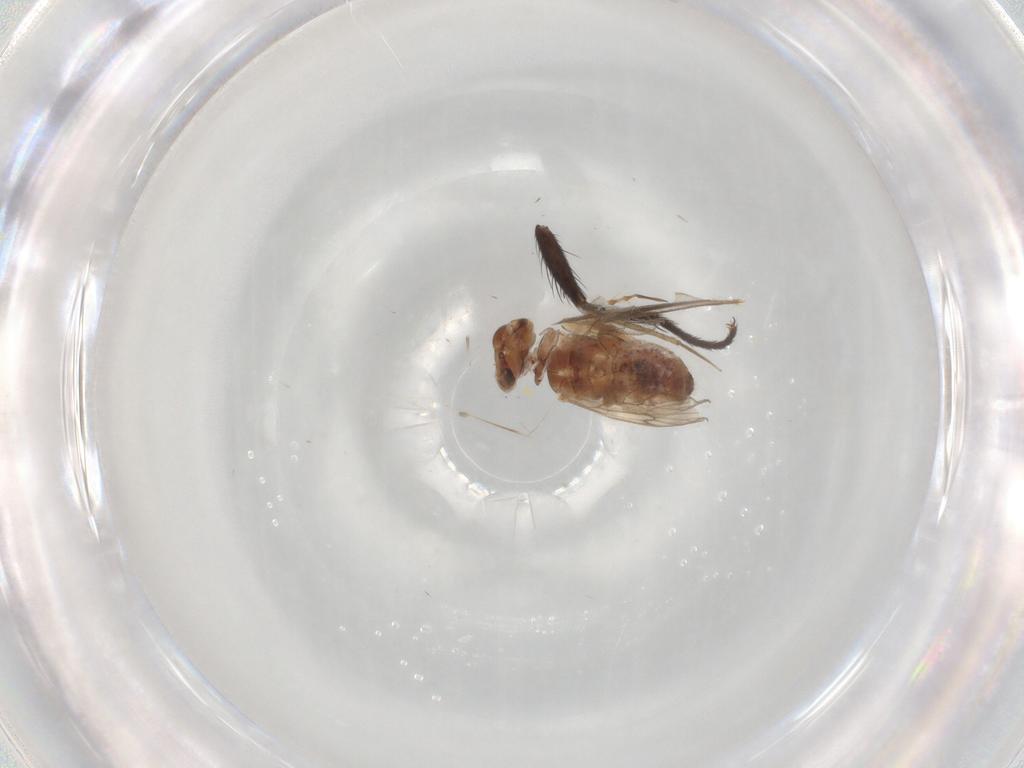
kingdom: Animalia
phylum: Arthropoda
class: Insecta
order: Psocodea
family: Lepidopsocidae
